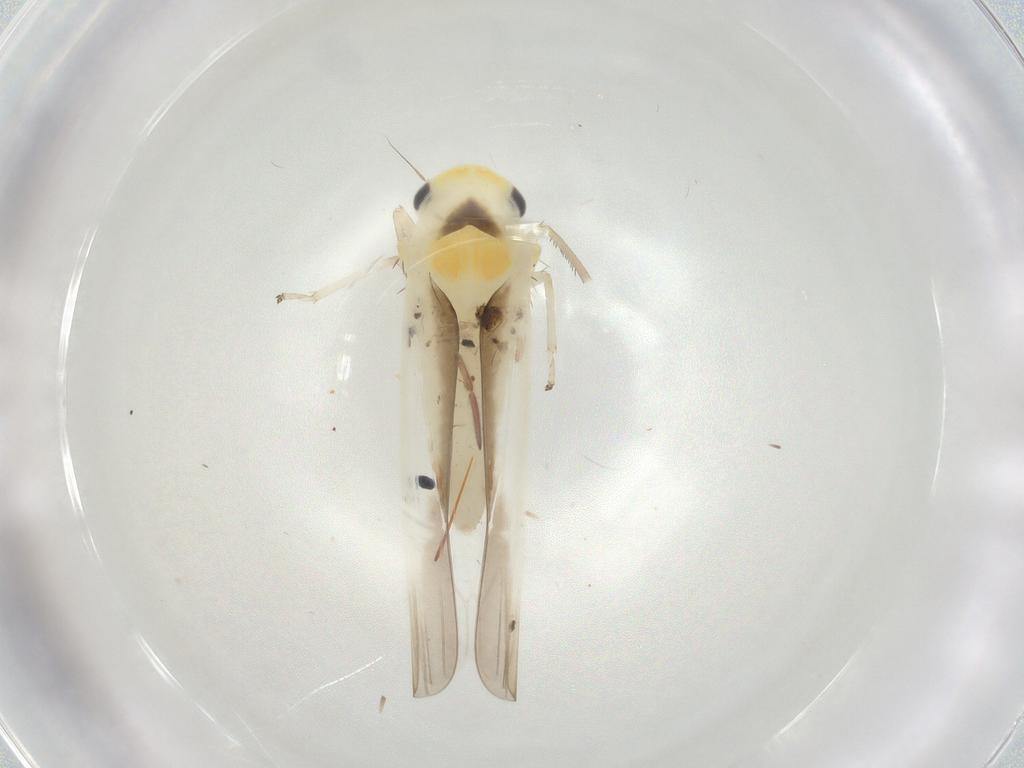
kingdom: Animalia
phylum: Arthropoda
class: Insecta
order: Hemiptera
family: Cicadellidae
